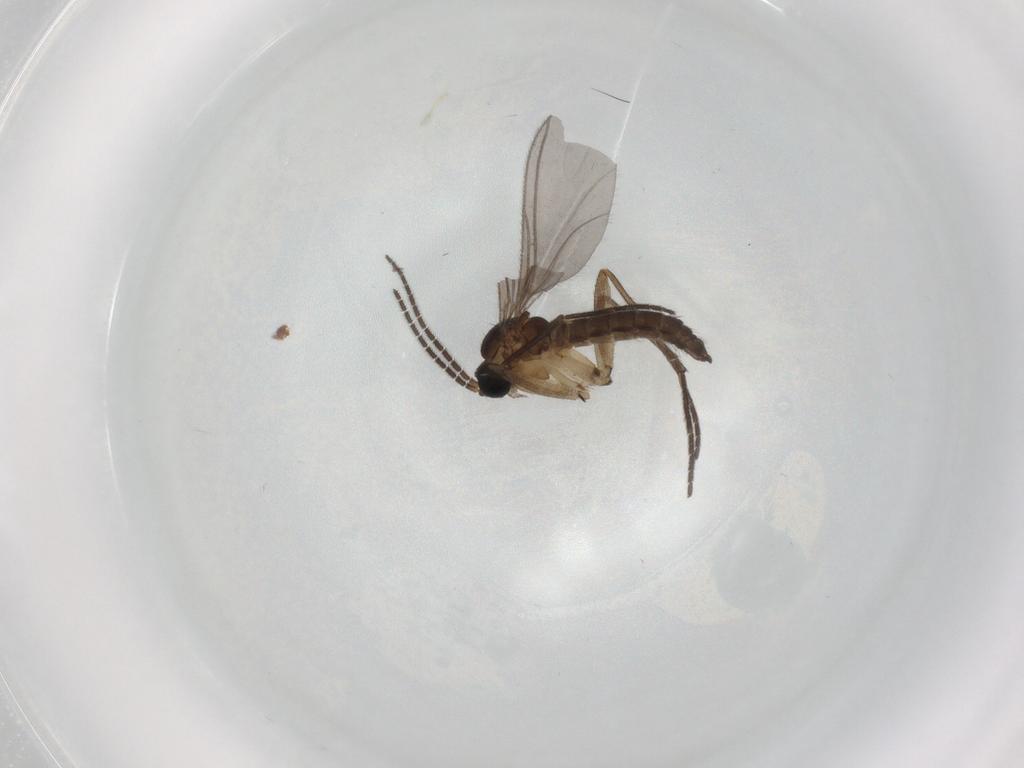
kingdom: Animalia
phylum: Arthropoda
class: Insecta
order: Diptera
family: Sciaridae
